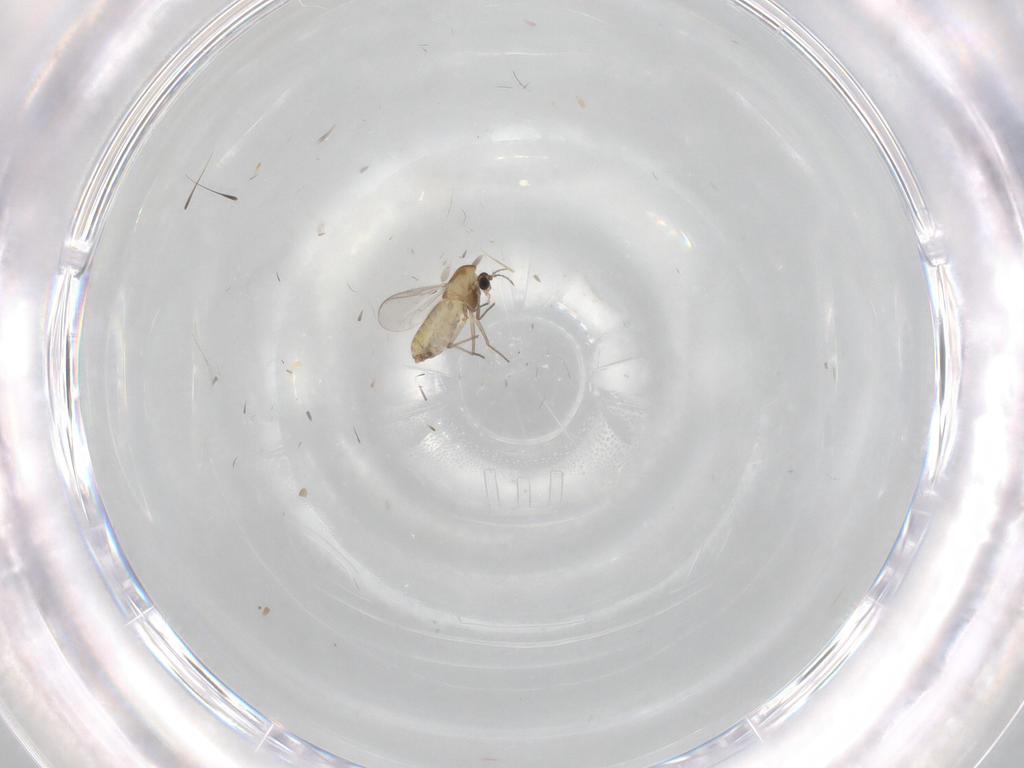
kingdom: Animalia
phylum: Arthropoda
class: Insecta
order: Diptera
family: Chironomidae
